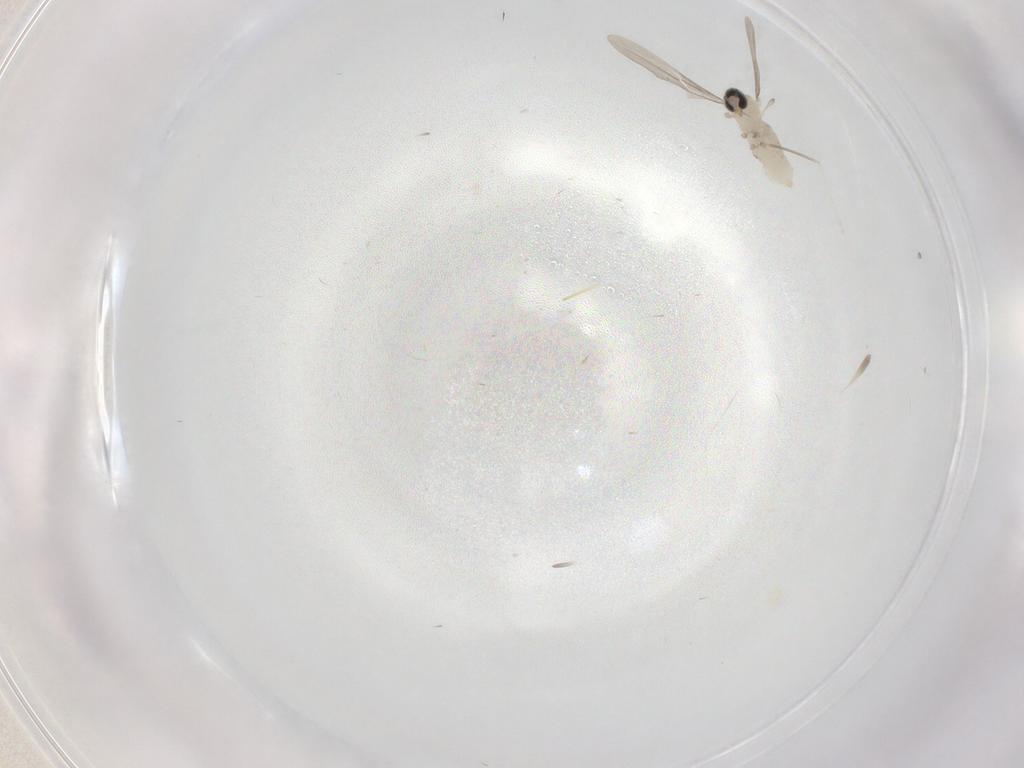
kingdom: Animalia
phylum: Arthropoda
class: Insecta
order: Diptera
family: Cecidomyiidae
